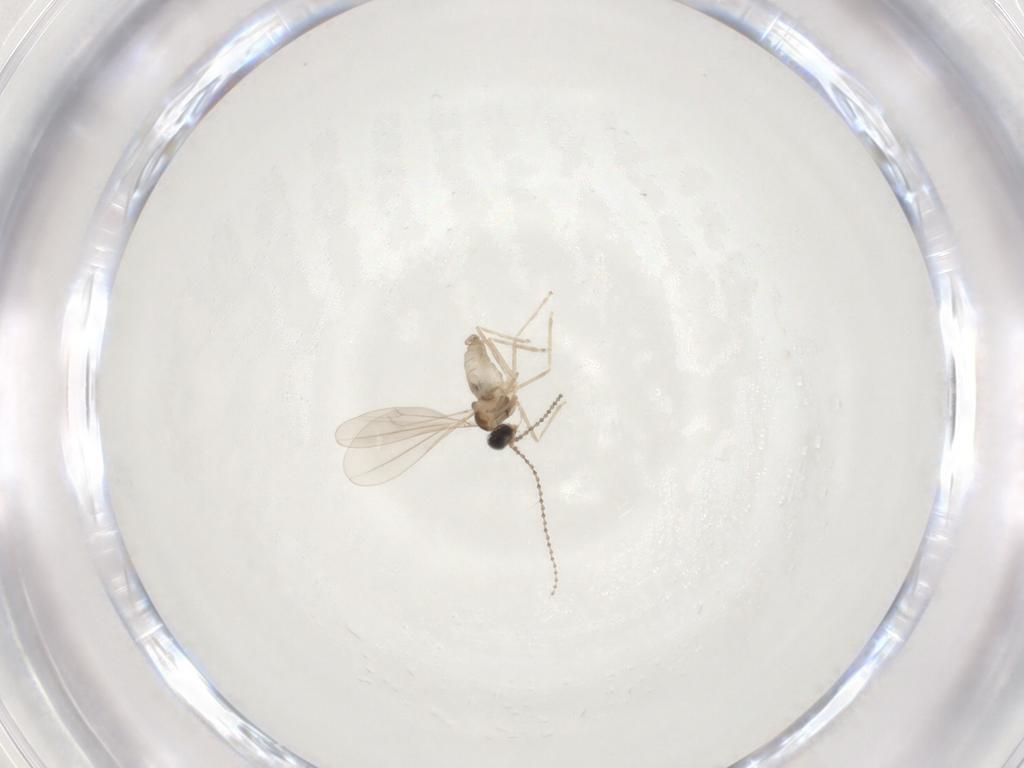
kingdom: Animalia
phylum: Arthropoda
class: Insecta
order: Diptera
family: Cecidomyiidae
